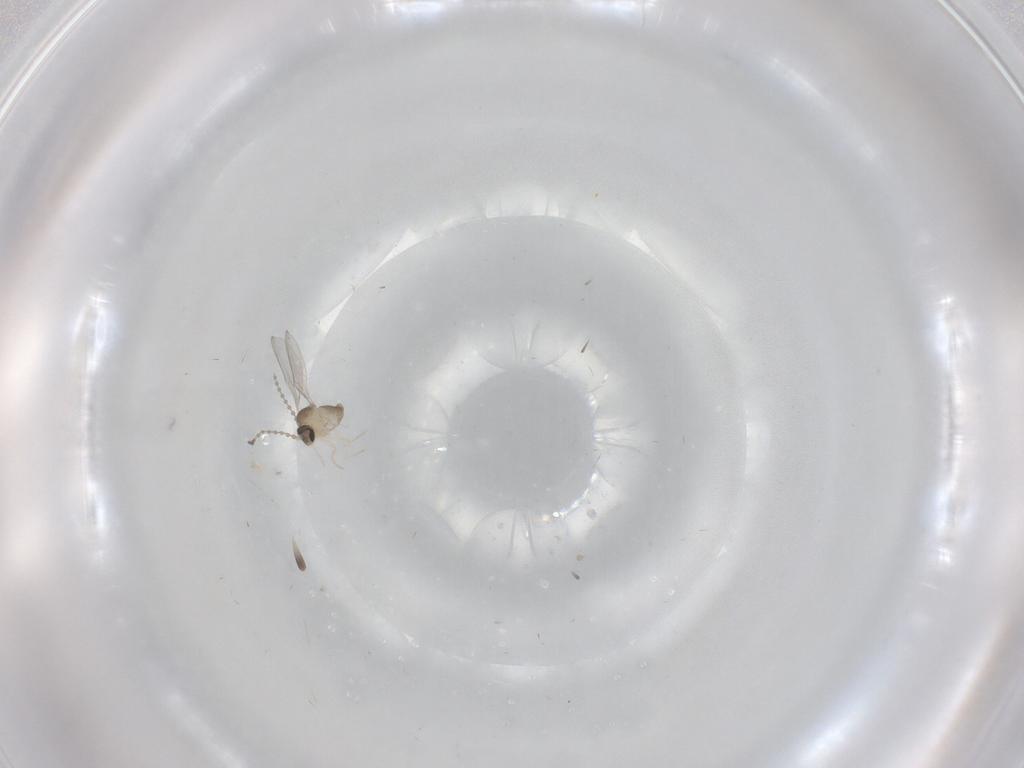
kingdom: Animalia
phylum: Arthropoda
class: Insecta
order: Diptera
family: Cecidomyiidae
